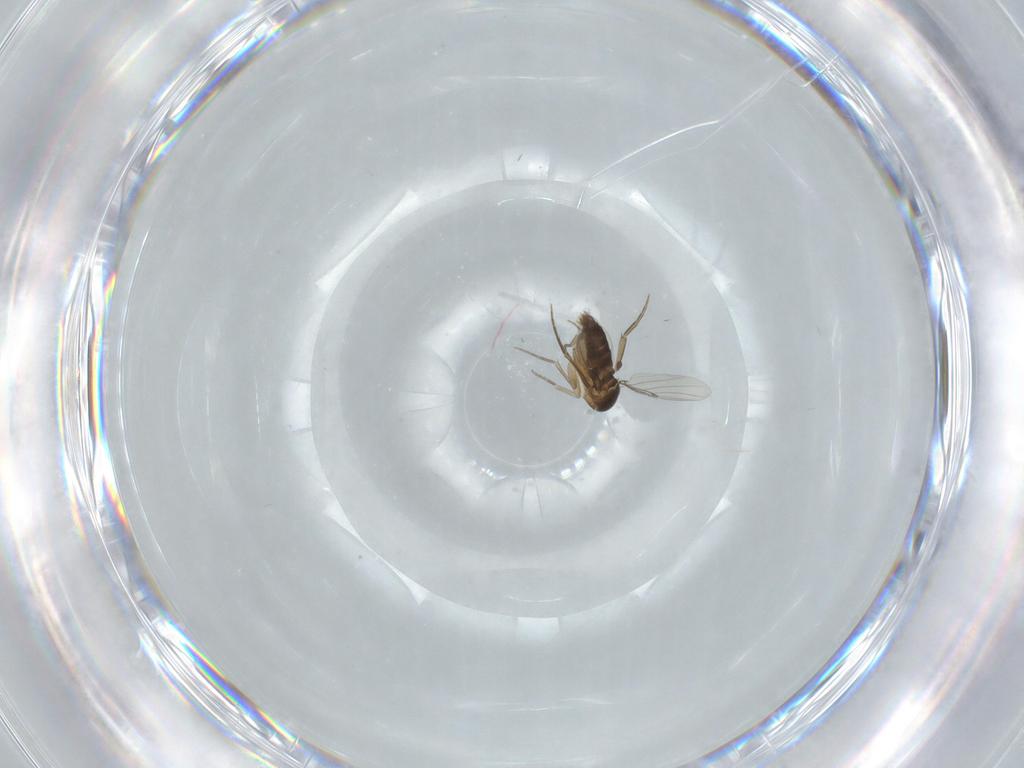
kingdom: Animalia
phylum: Arthropoda
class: Insecta
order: Diptera
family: Phoridae
